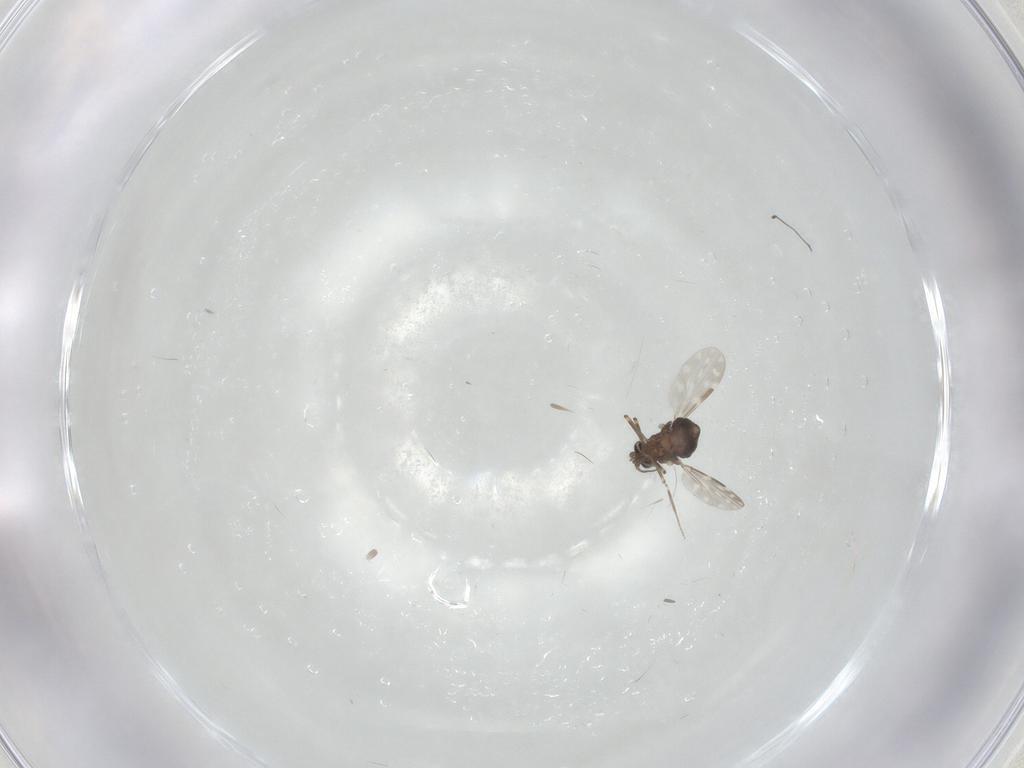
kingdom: Animalia
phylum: Arthropoda
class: Insecta
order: Diptera
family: Ceratopogonidae
